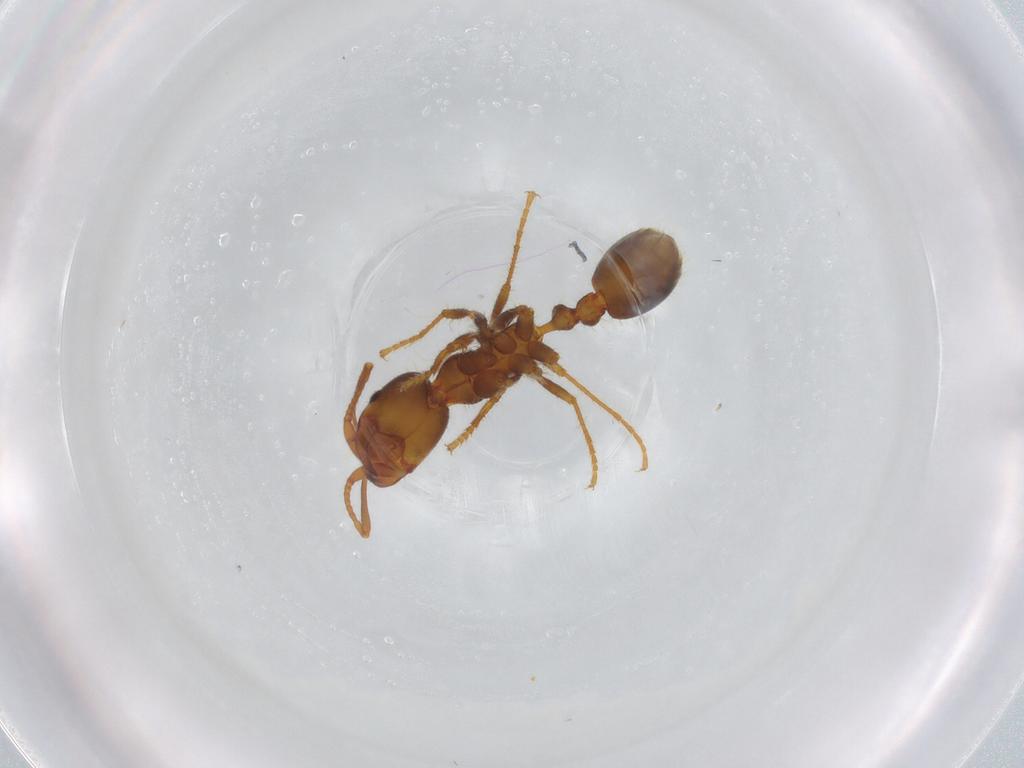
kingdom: Animalia
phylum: Arthropoda
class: Insecta
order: Hymenoptera
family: Formicidae
